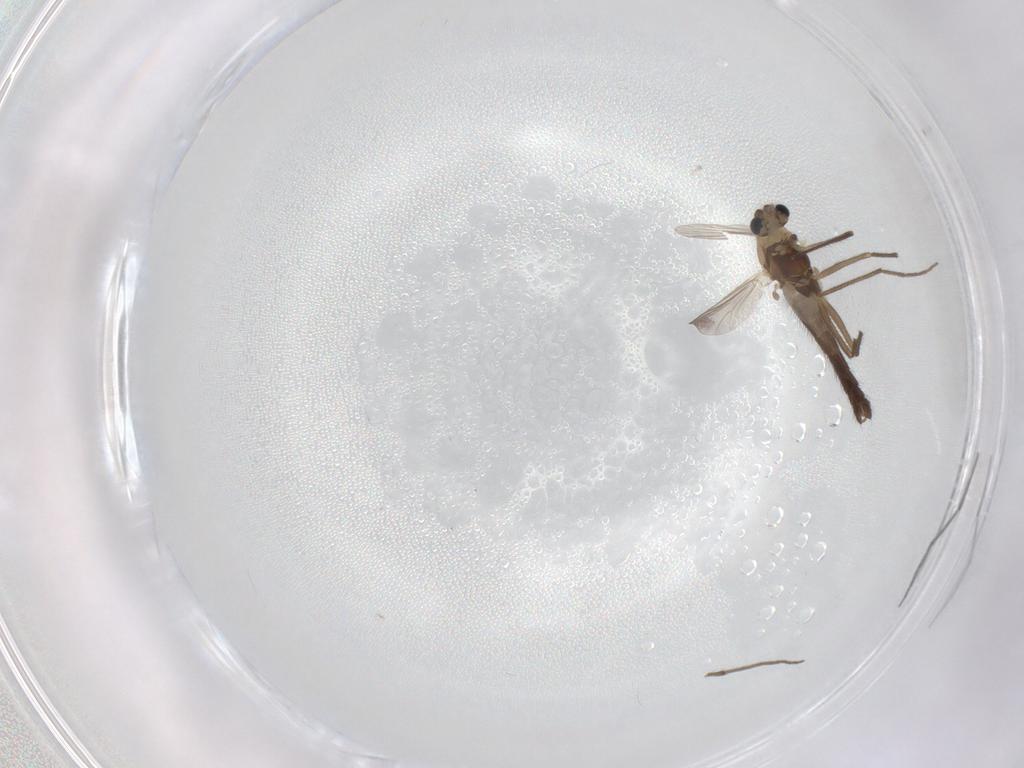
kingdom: Animalia
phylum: Arthropoda
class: Insecta
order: Diptera
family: Chironomidae
